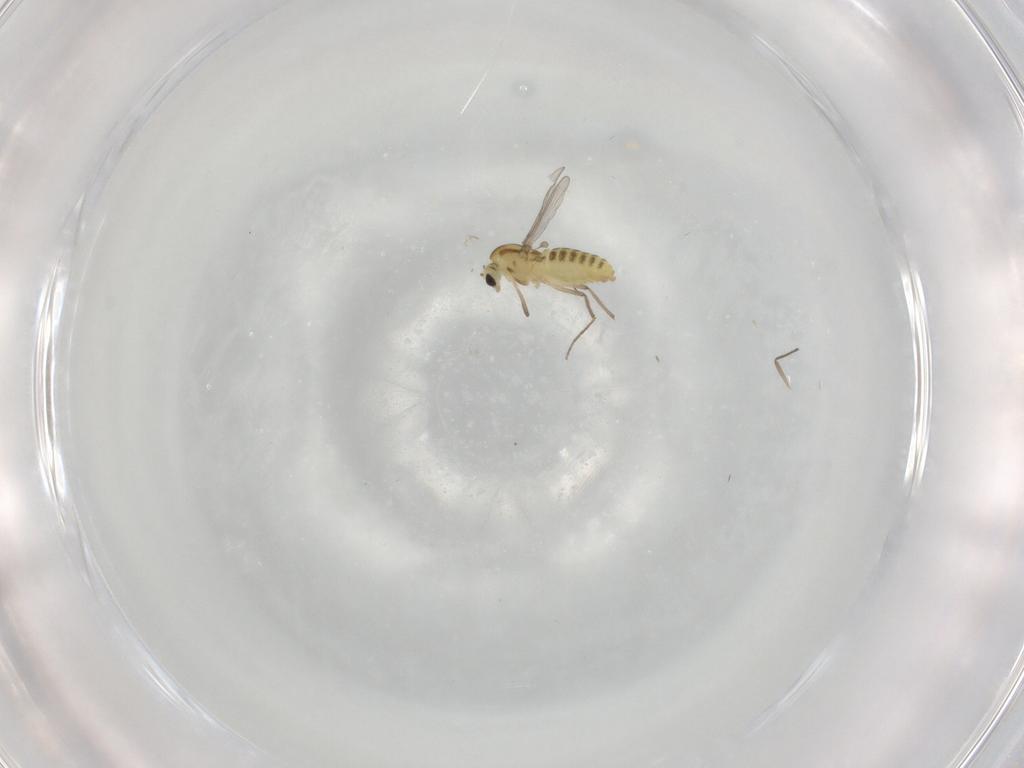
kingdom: Animalia
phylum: Arthropoda
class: Insecta
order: Diptera
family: Chironomidae
